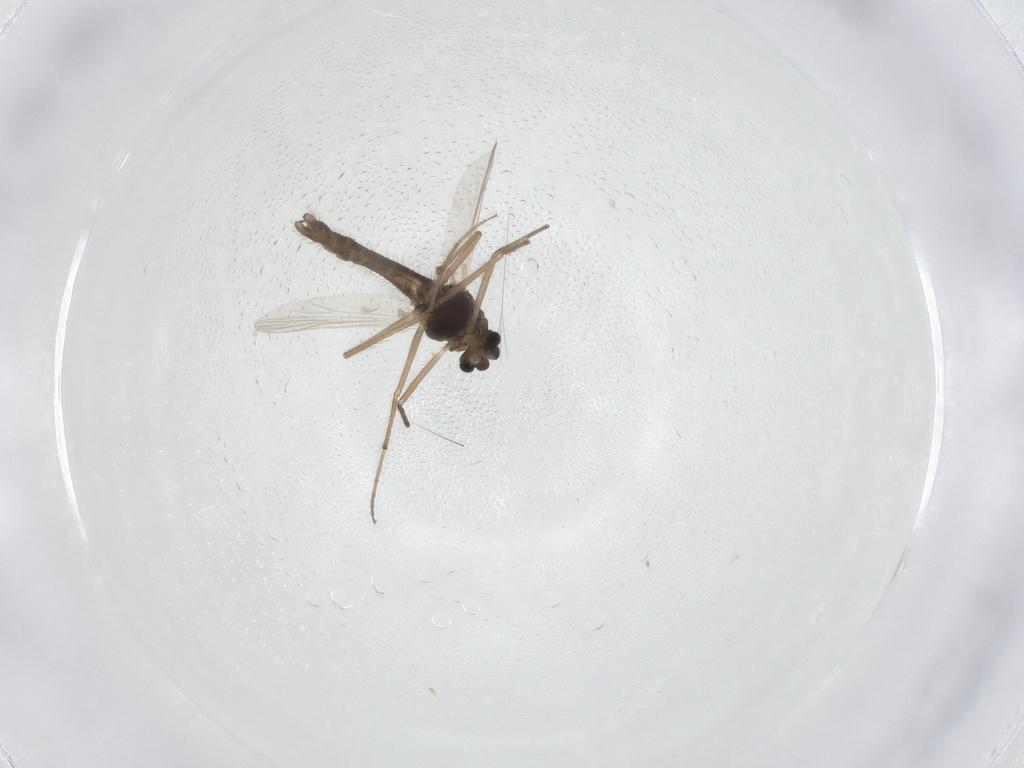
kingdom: Animalia
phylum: Arthropoda
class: Insecta
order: Diptera
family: Chironomidae
